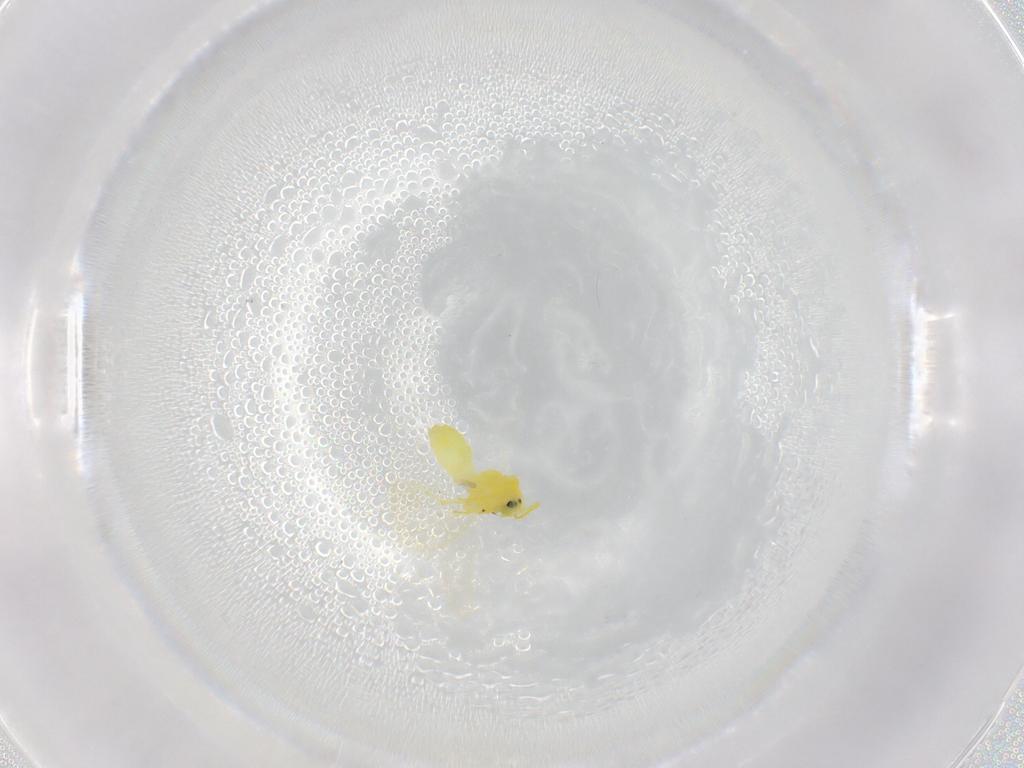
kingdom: Animalia
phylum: Arthropoda
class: Insecta
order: Hemiptera
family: Aleyrodidae
